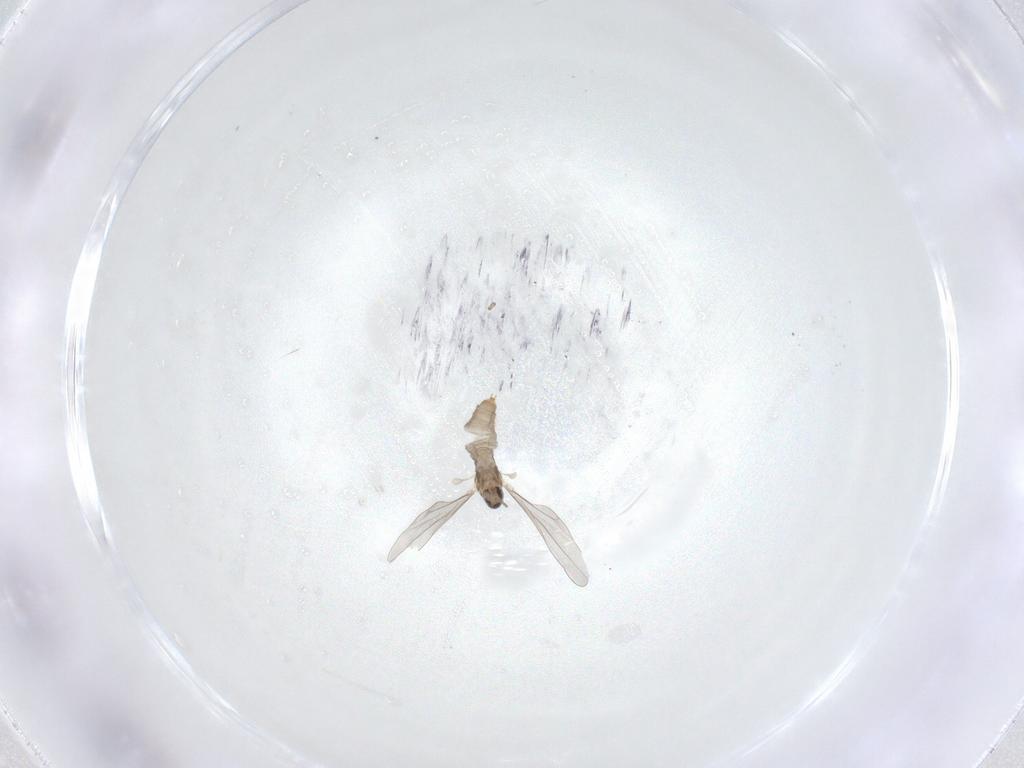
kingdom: Animalia
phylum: Arthropoda
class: Insecta
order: Diptera
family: Cecidomyiidae
